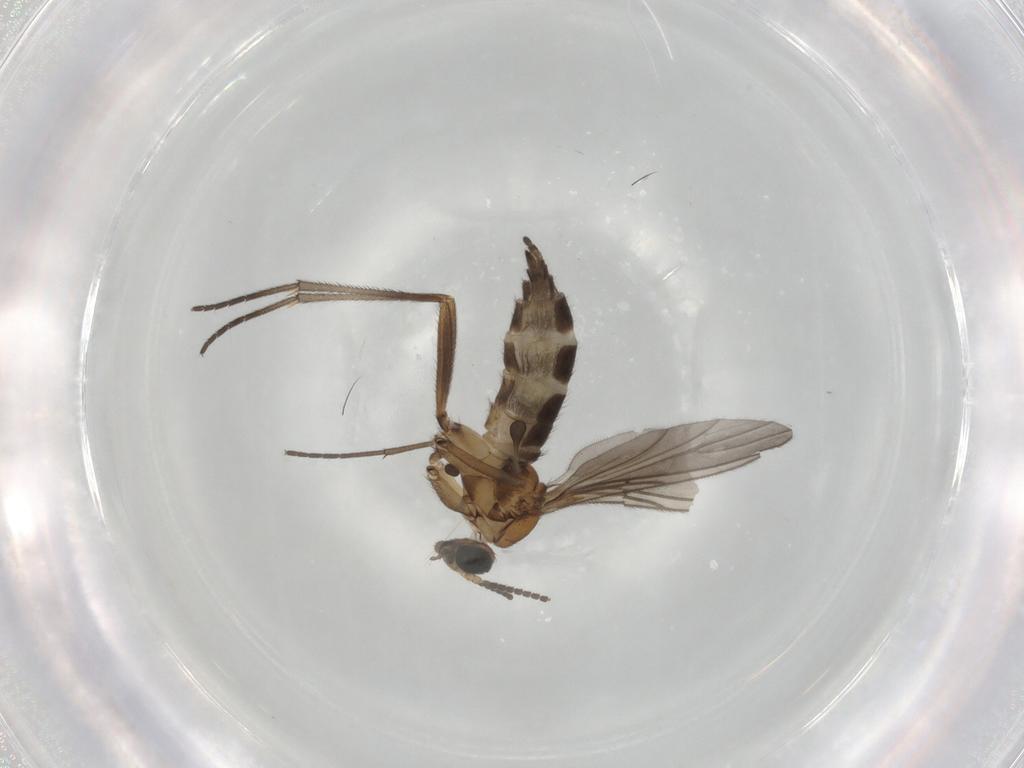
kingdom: Animalia
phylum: Arthropoda
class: Insecta
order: Diptera
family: Sciaridae
